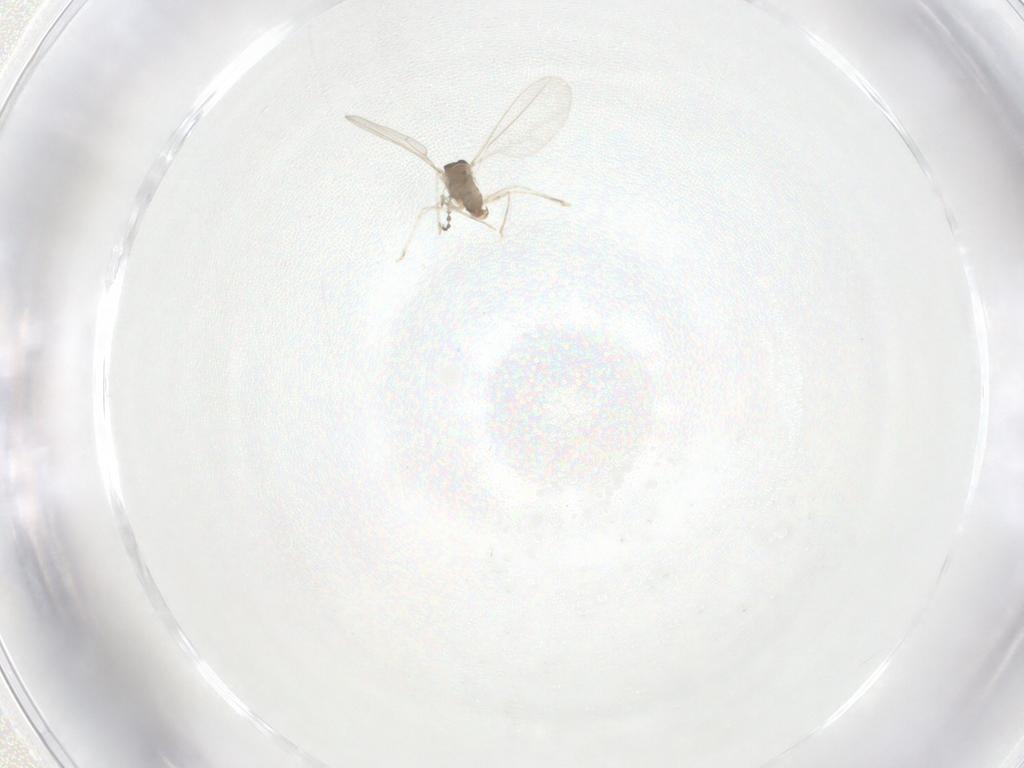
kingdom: Animalia
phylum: Arthropoda
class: Insecta
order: Diptera
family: Cecidomyiidae
